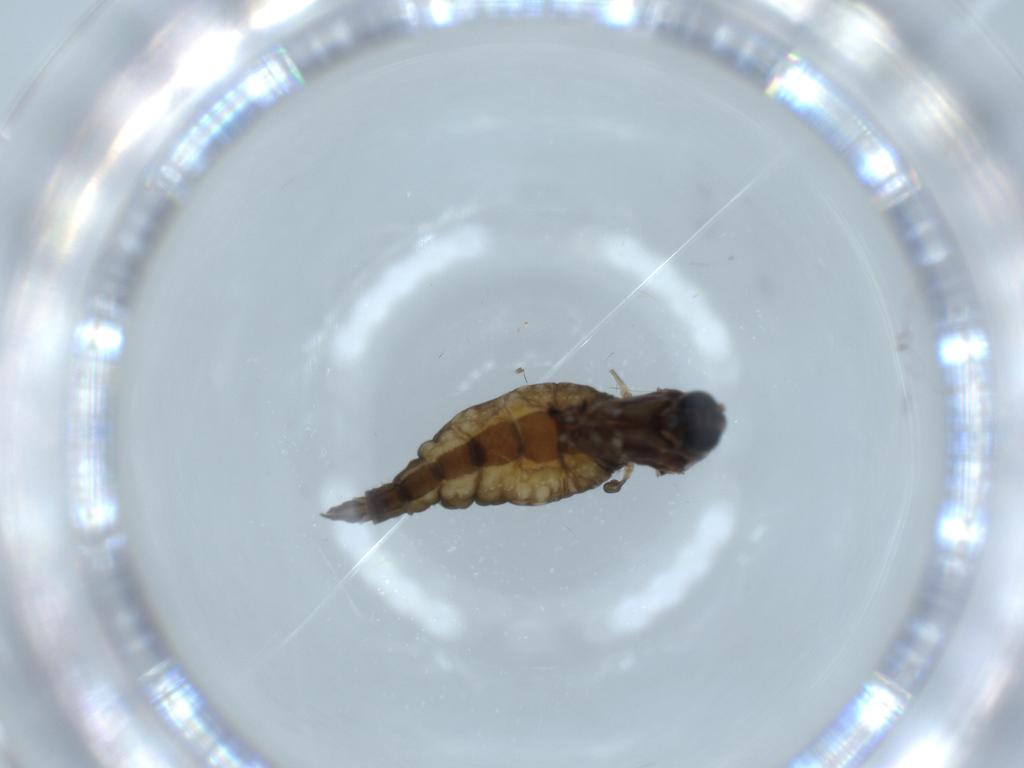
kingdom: Animalia
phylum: Arthropoda
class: Insecta
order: Diptera
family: Sciaridae
